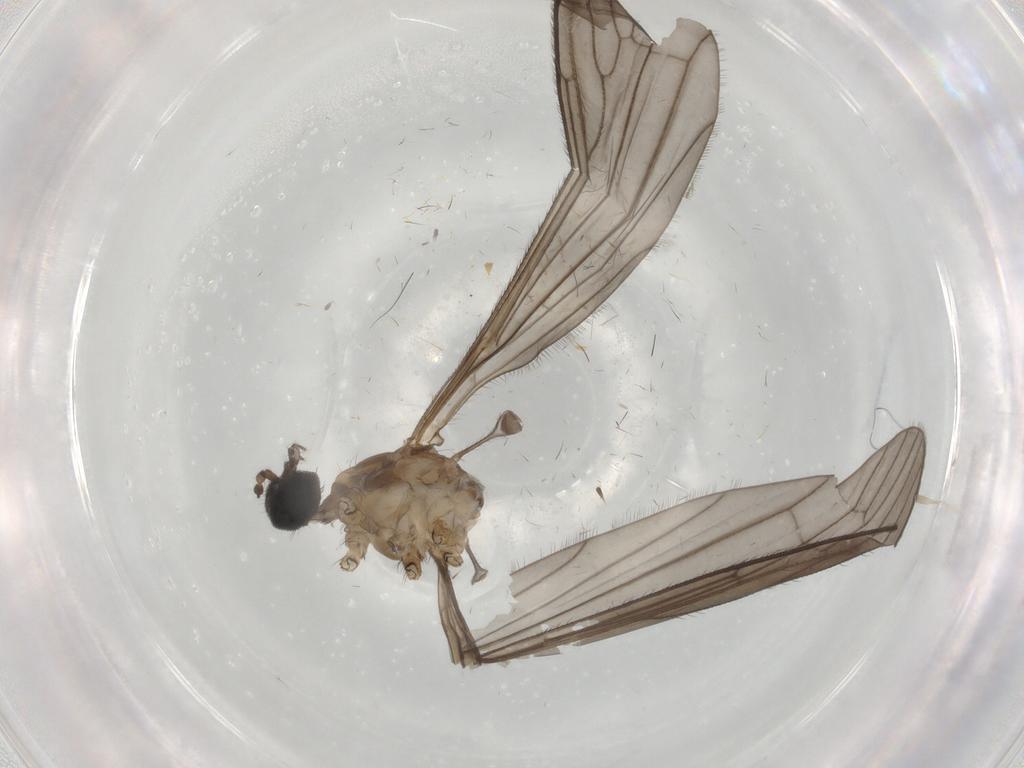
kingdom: Animalia
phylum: Arthropoda
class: Insecta
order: Diptera
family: Phoridae
